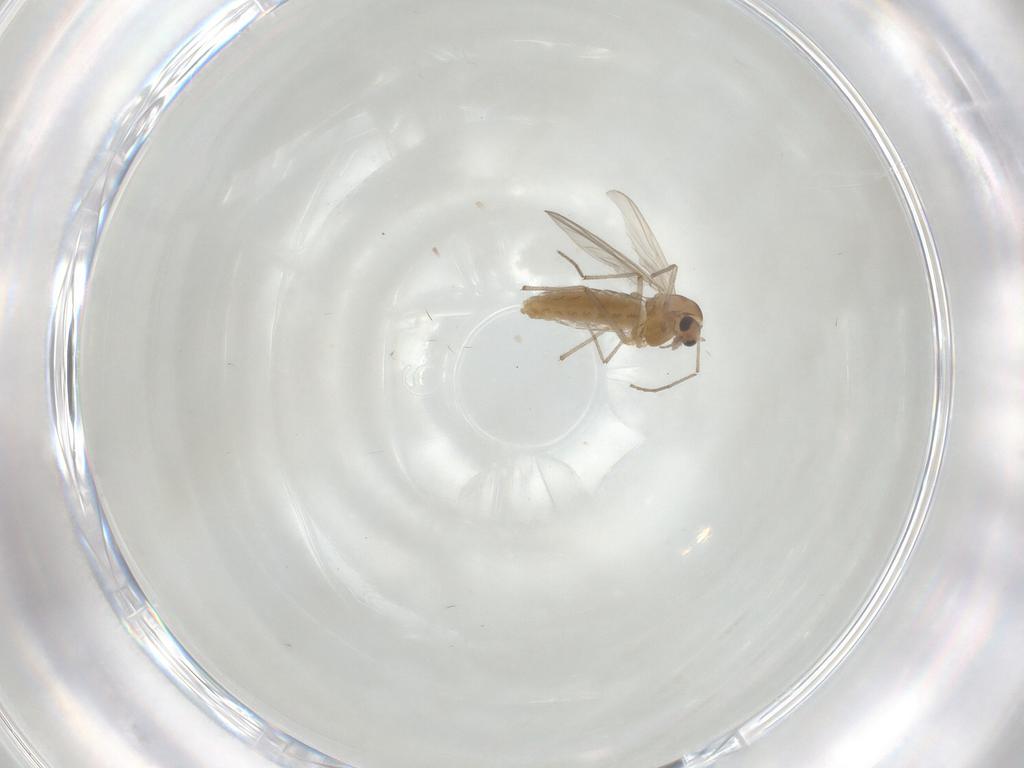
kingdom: Animalia
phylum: Arthropoda
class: Insecta
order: Diptera
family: Chironomidae
